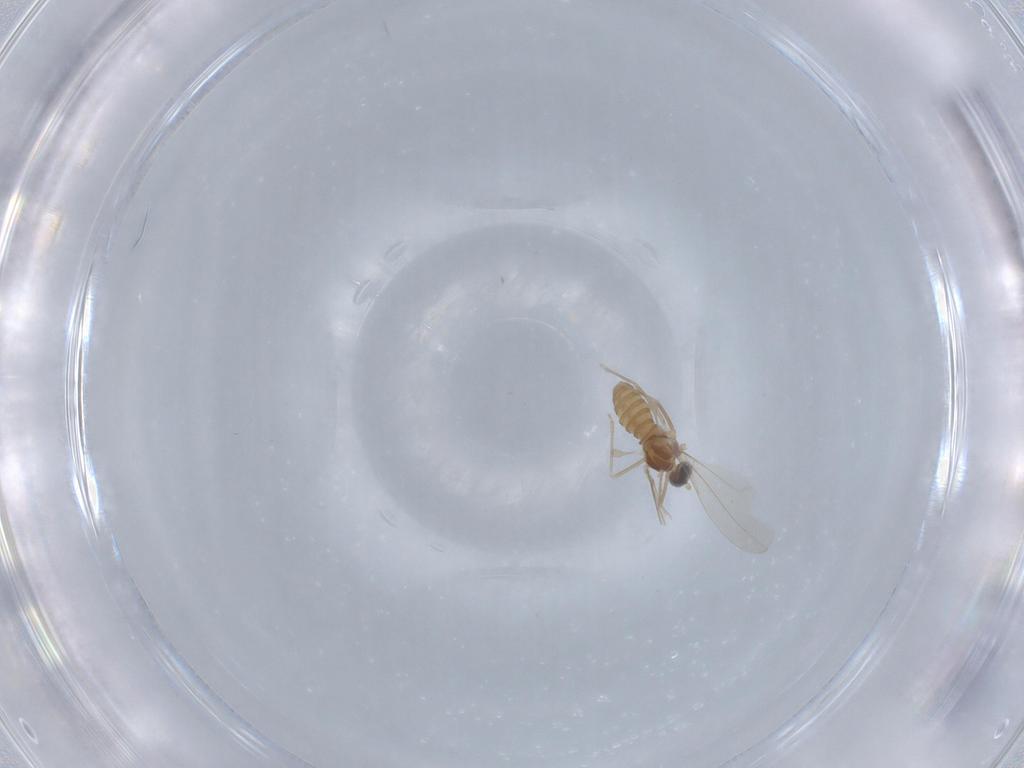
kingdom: Animalia
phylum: Arthropoda
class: Insecta
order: Diptera
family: Cecidomyiidae
